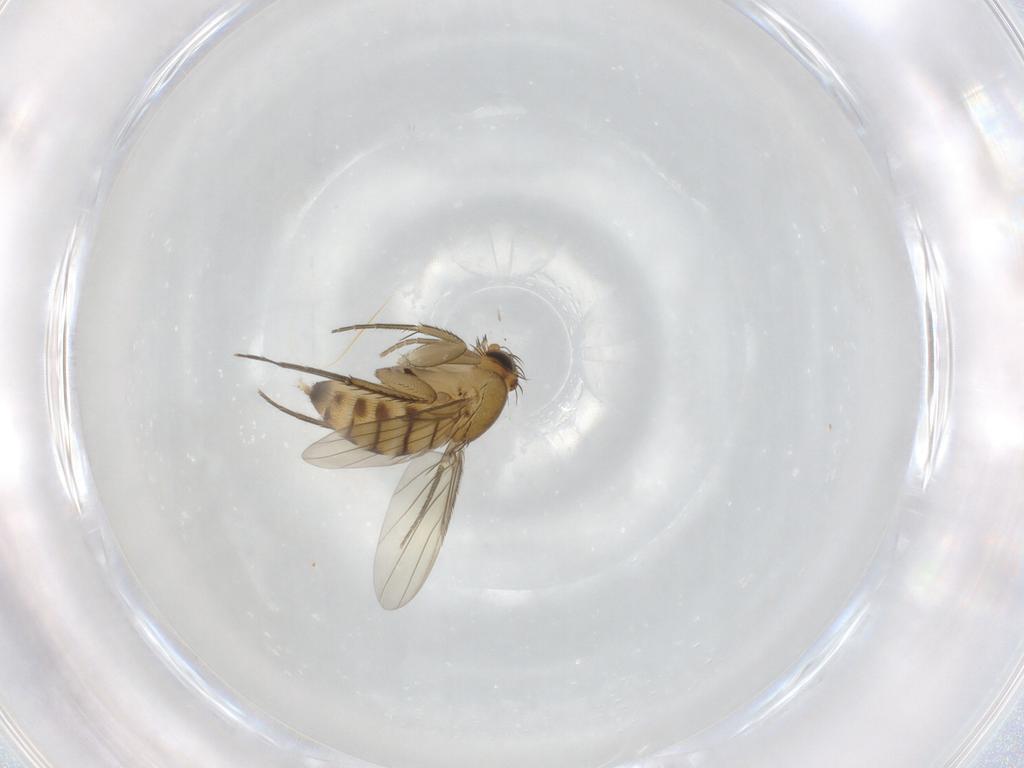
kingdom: Animalia
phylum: Arthropoda
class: Insecta
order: Diptera
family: Phoridae
